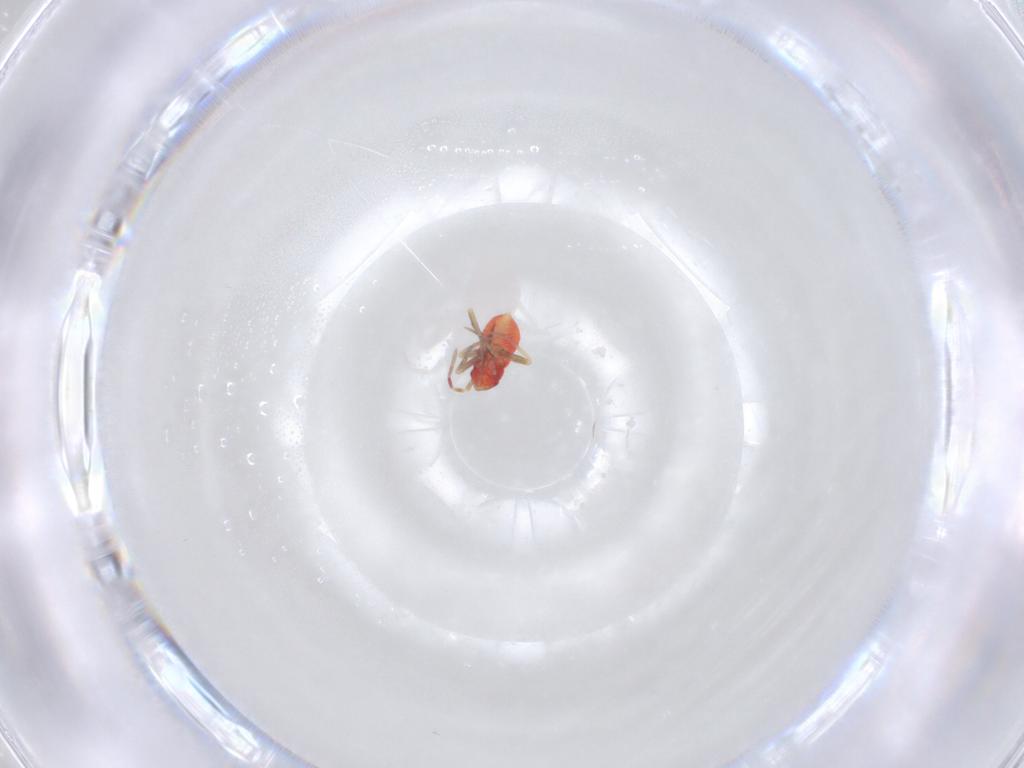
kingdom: Animalia
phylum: Arthropoda
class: Insecta
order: Hemiptera
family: Miridae
